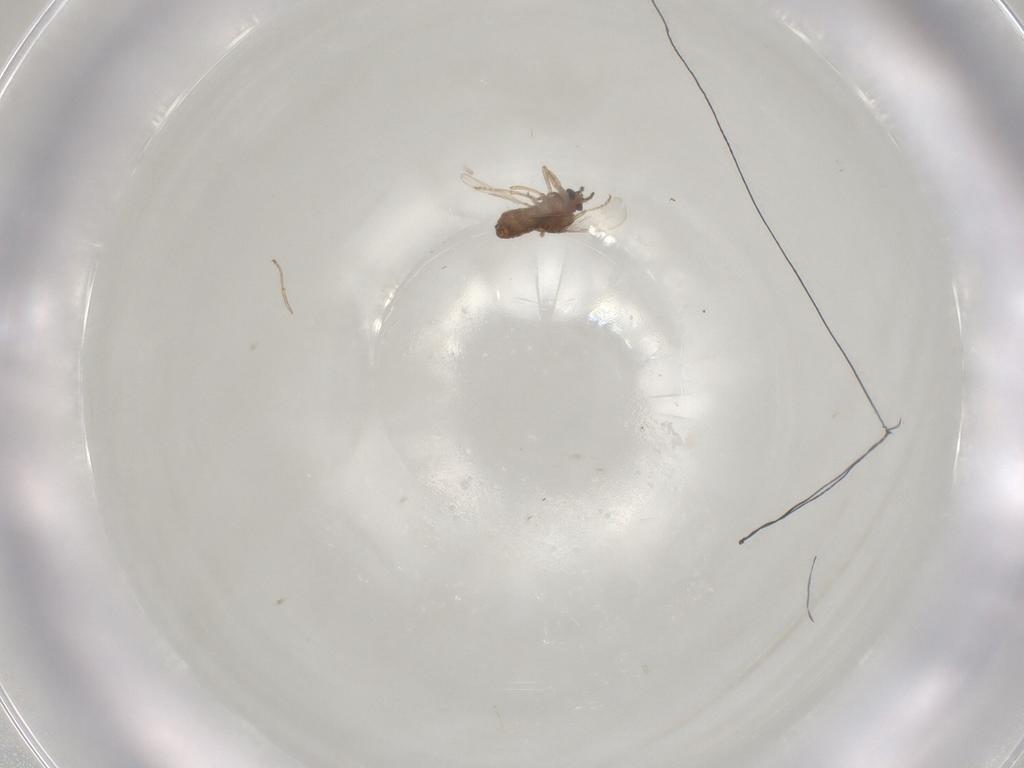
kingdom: Animalia
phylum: Arthropoda
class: Insecta
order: Diptera
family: Ceratopogonidae
